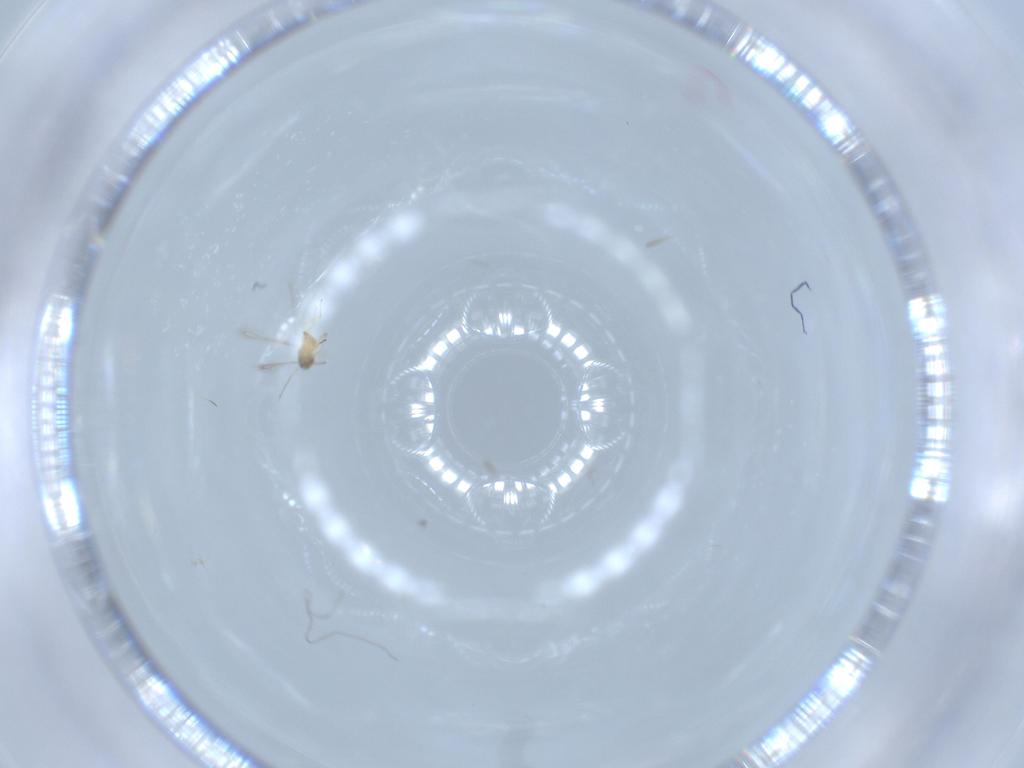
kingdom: Animalia
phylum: Arthropoda
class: Insecta
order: Hymenoptera
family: Mymaridae
